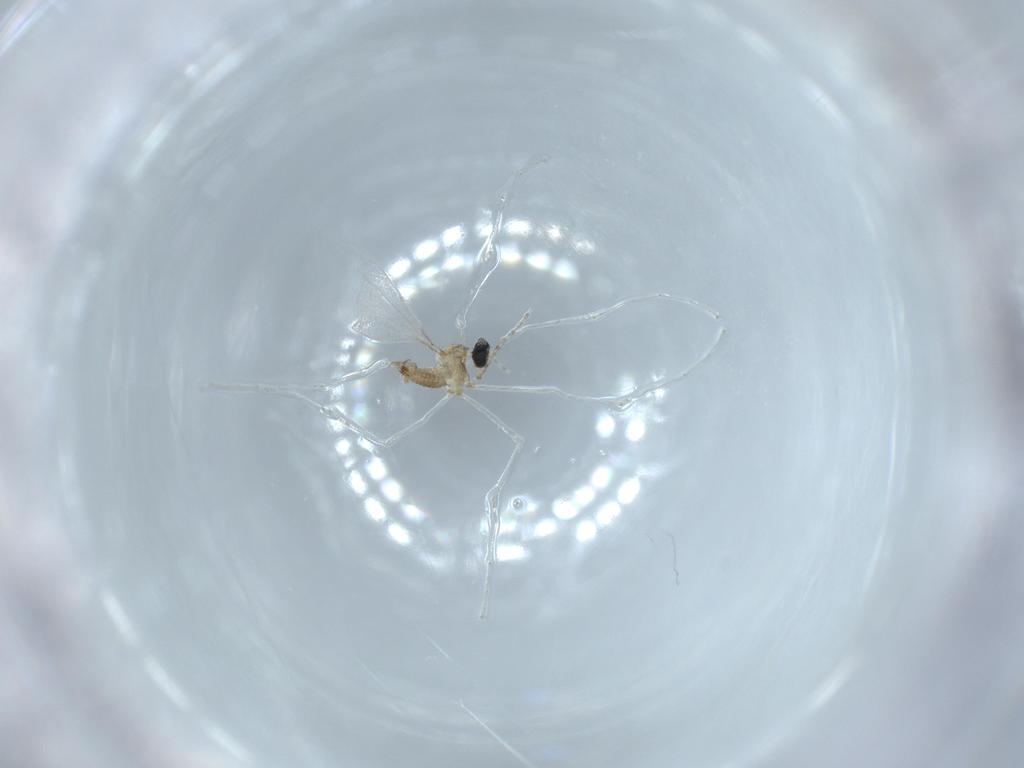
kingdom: Animalia
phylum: Arthropoda
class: Insecta
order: Diptera
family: Cecidomyiidae
